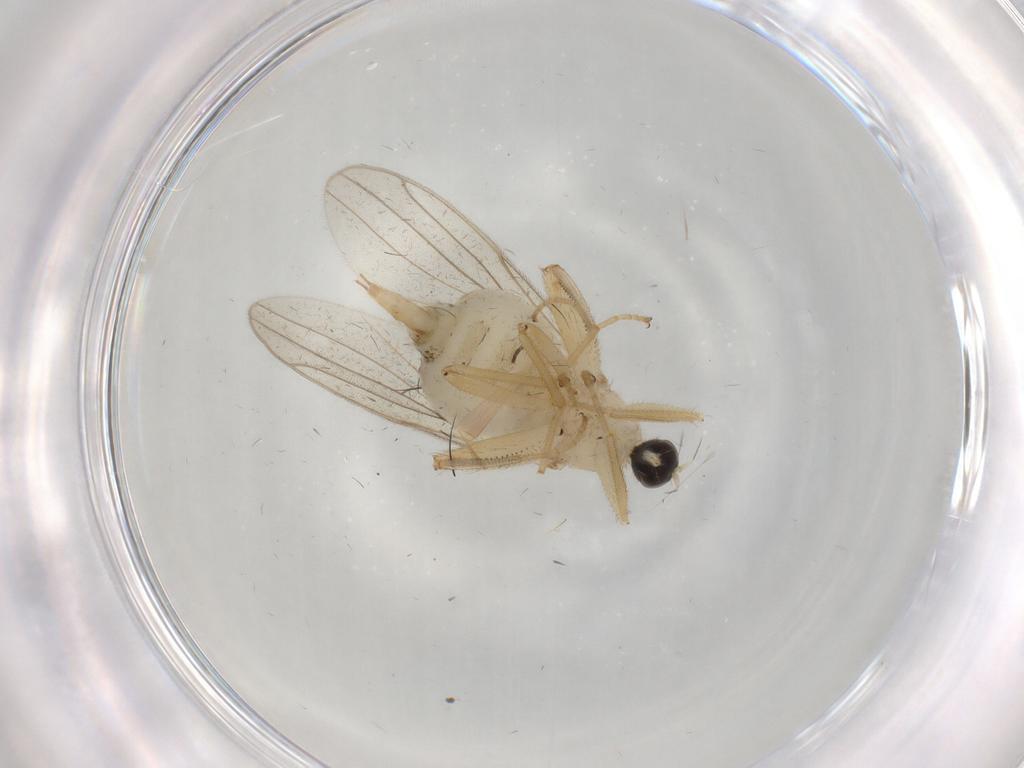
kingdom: Animalia
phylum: Arthropoda
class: Insecta
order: Diptera
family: Hybotidae
